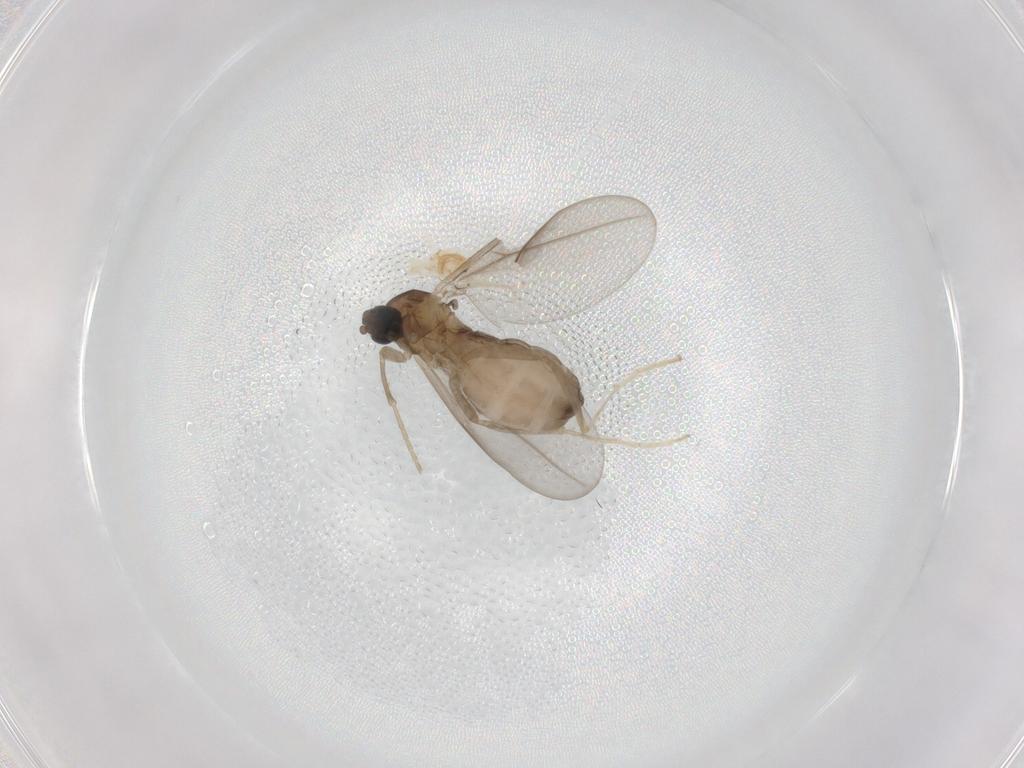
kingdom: Animalia
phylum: Arthropoda
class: Insecta
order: Diptera
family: Cecidomyiidae
